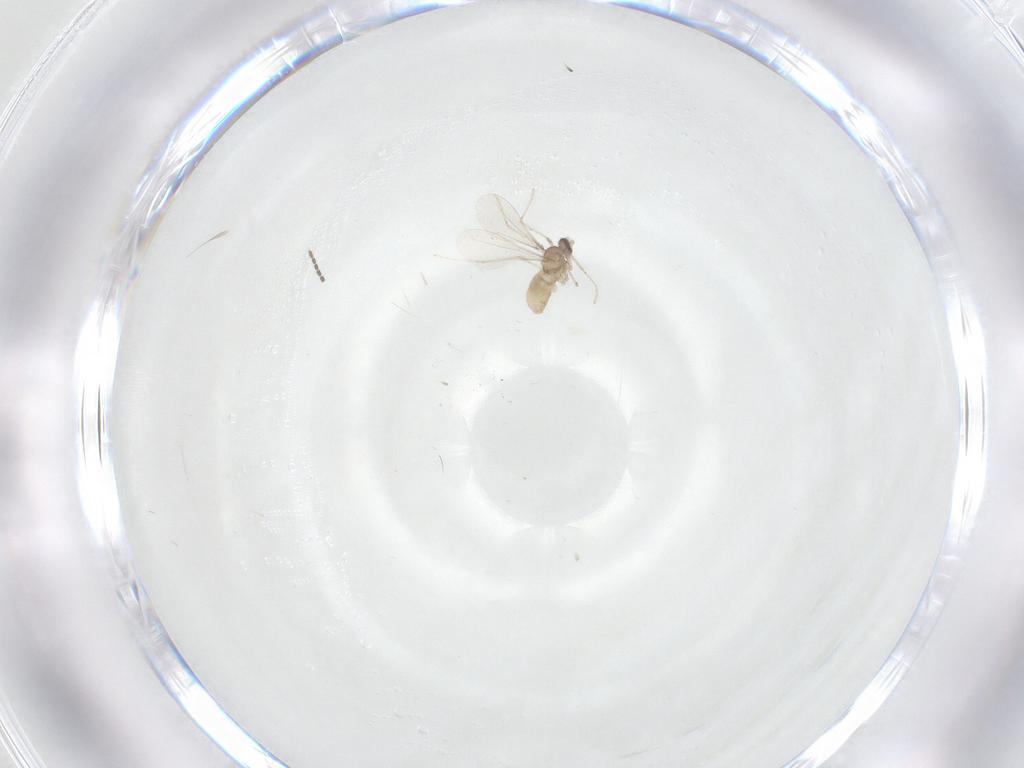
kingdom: Animalia
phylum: Arthropoda
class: Insecta
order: Diptera
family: Sciaridae
